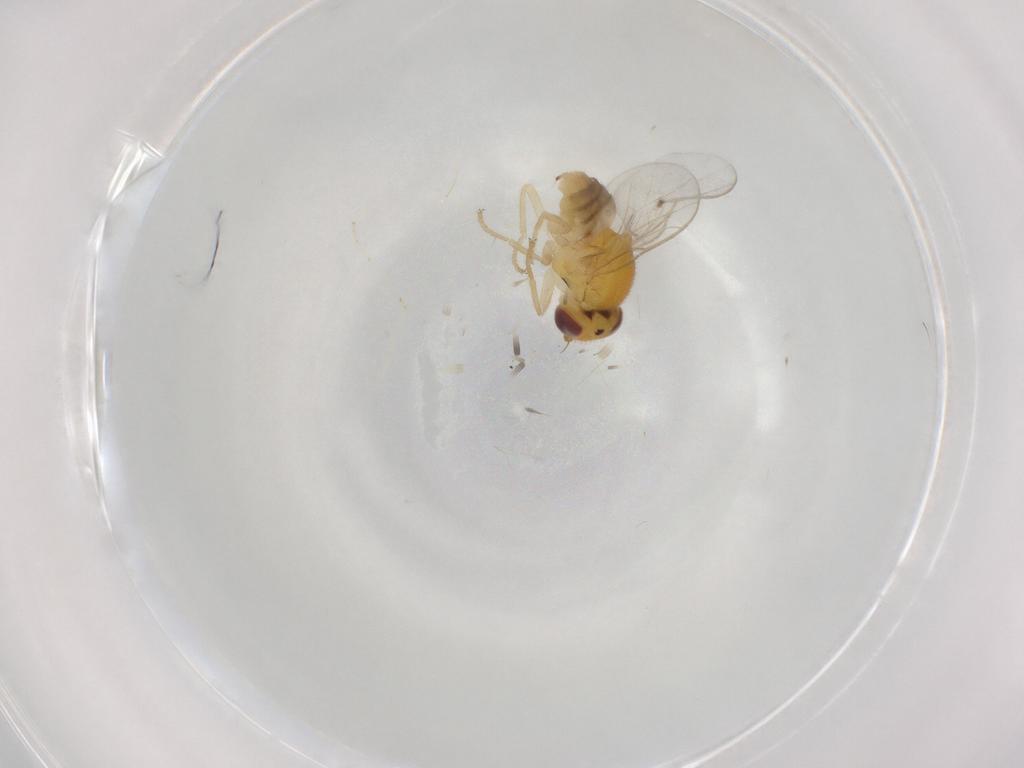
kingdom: Animalia
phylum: Arthropoda
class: Insecta
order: Diptera
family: Chloropidae
